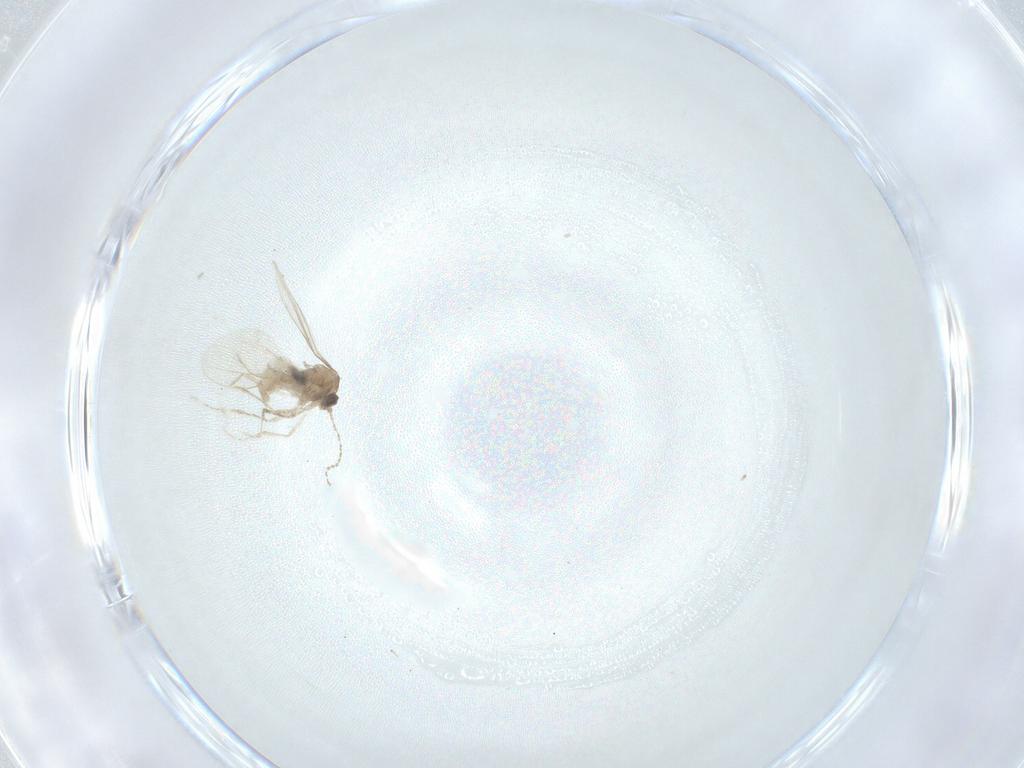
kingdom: Animalia
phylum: Arthropoda
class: Insecta
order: Diptera
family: Cecidomyiidae
